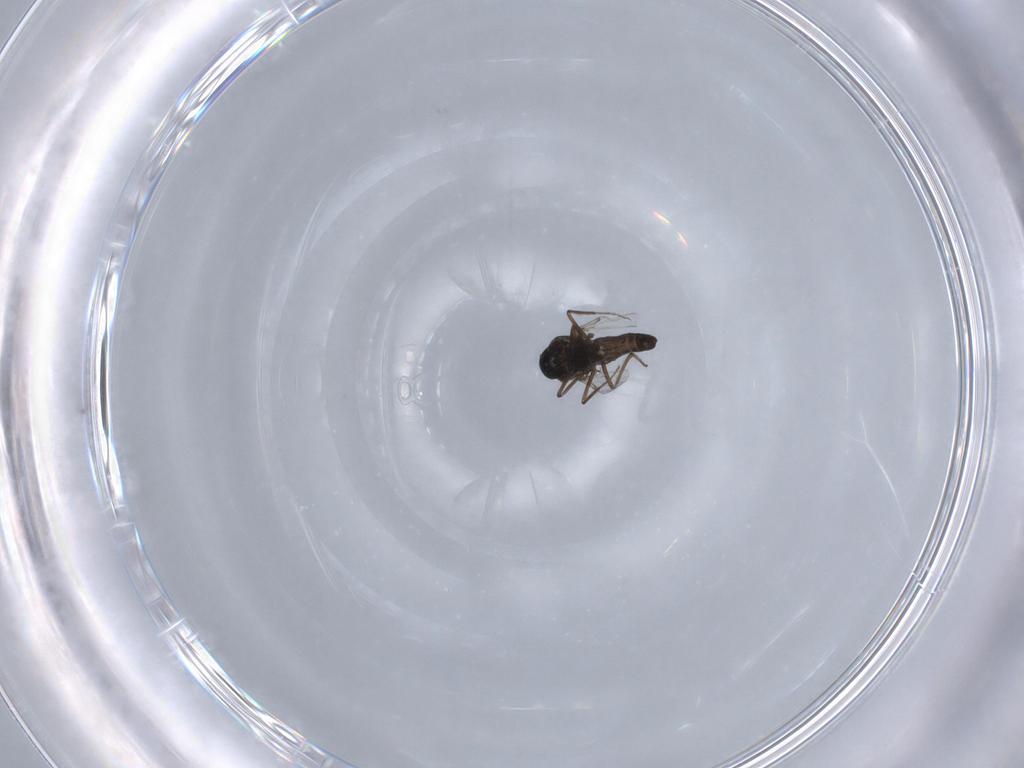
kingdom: Animalia
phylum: Arthropoda
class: Insecta
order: Diptera
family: Ceratopogonidae
